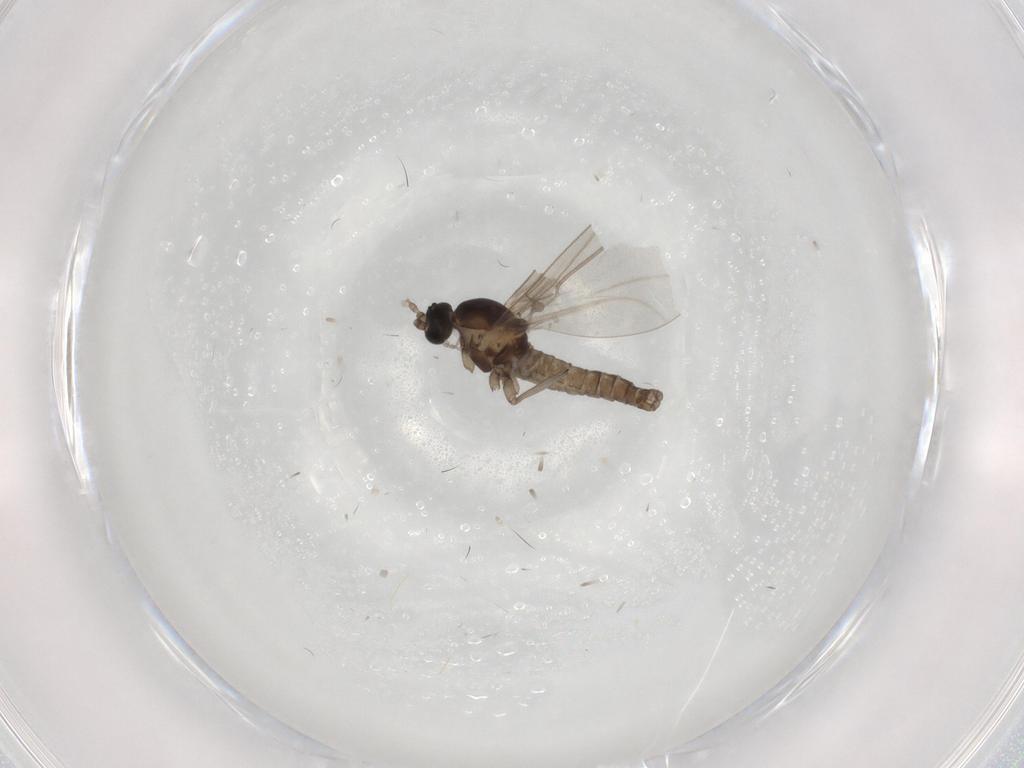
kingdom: Animalia
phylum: Arthropoda
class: Insecta
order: Diptera
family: Cecidomyiidae
